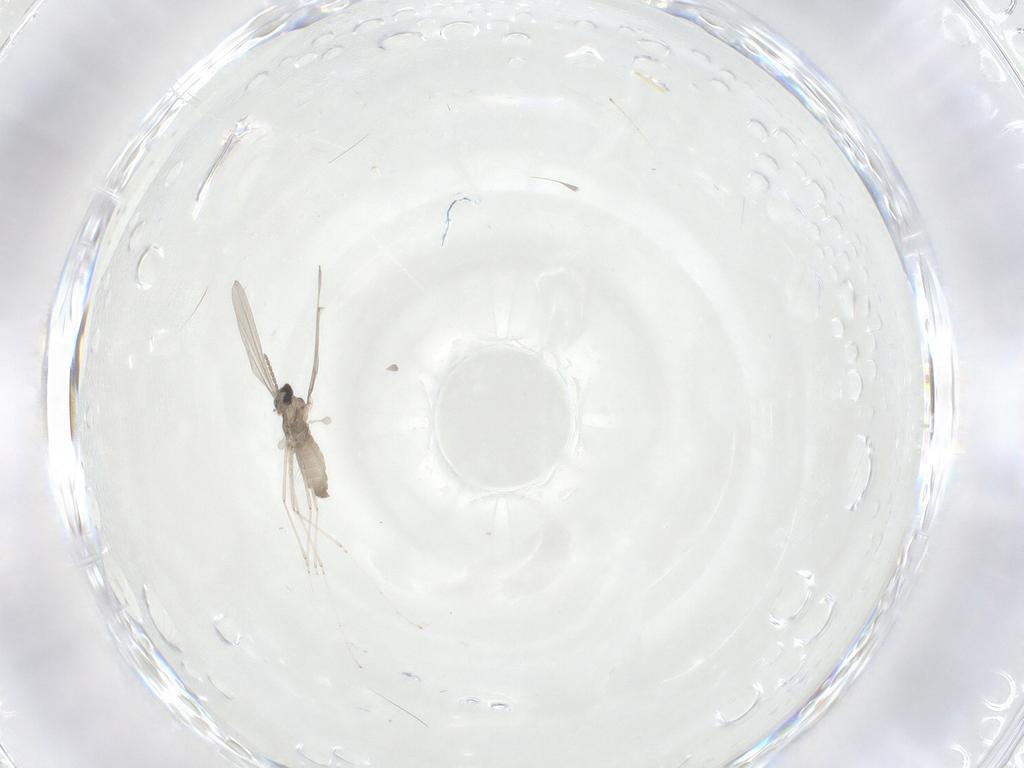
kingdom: Animalia
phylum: Arthropoda
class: Insecta
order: Diptera
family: Cecidomyiidae
